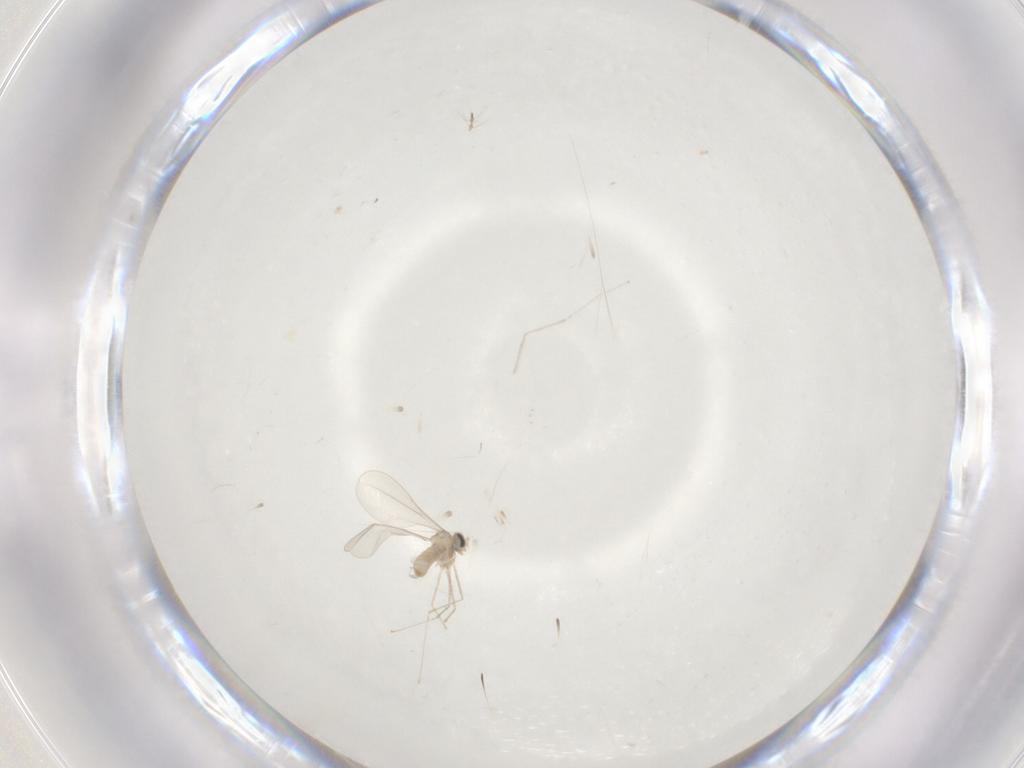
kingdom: Animalia
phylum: Arthropoda
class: Insecta
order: Diptera
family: Cecidomyiidae
